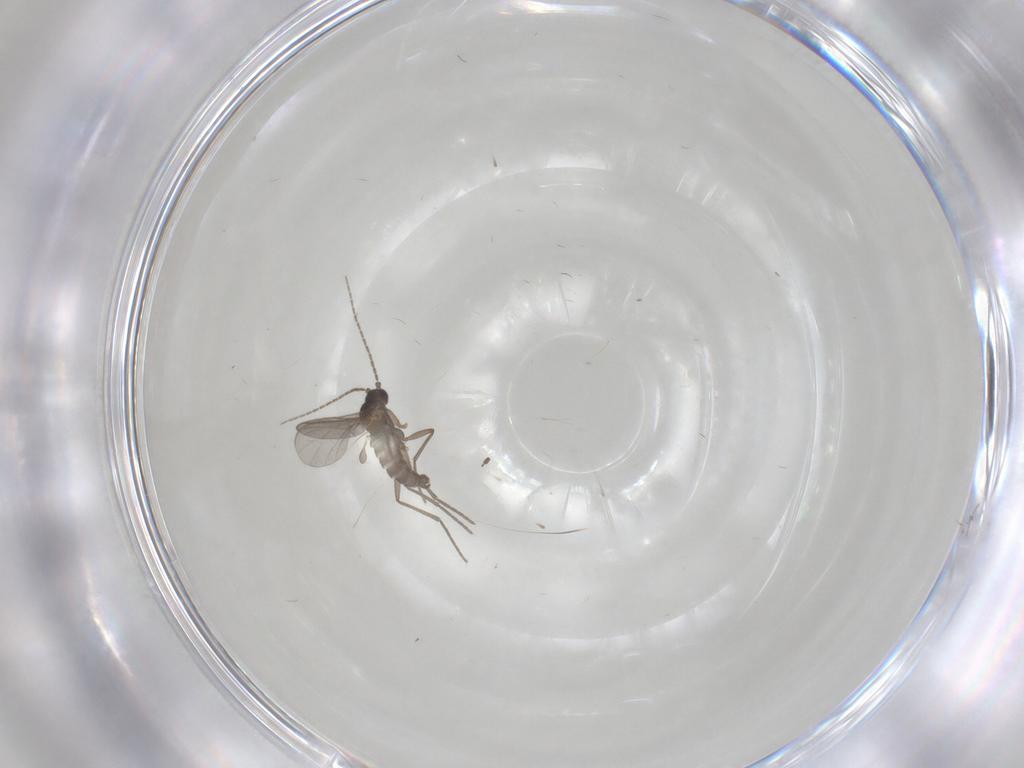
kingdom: Animalia
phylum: Arthropoda
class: Insecta
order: Diptera
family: Sciaridae
